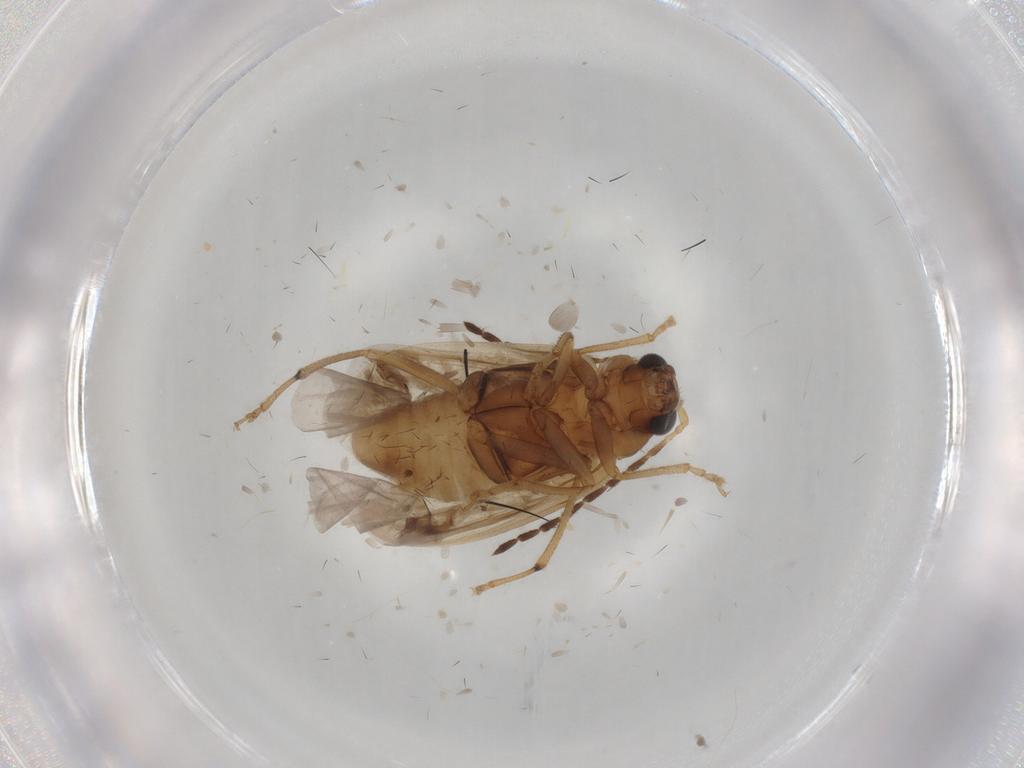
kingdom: Animalia
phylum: Arthropoda
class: Insecta
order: Coleoptera
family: Chrysomelidae
